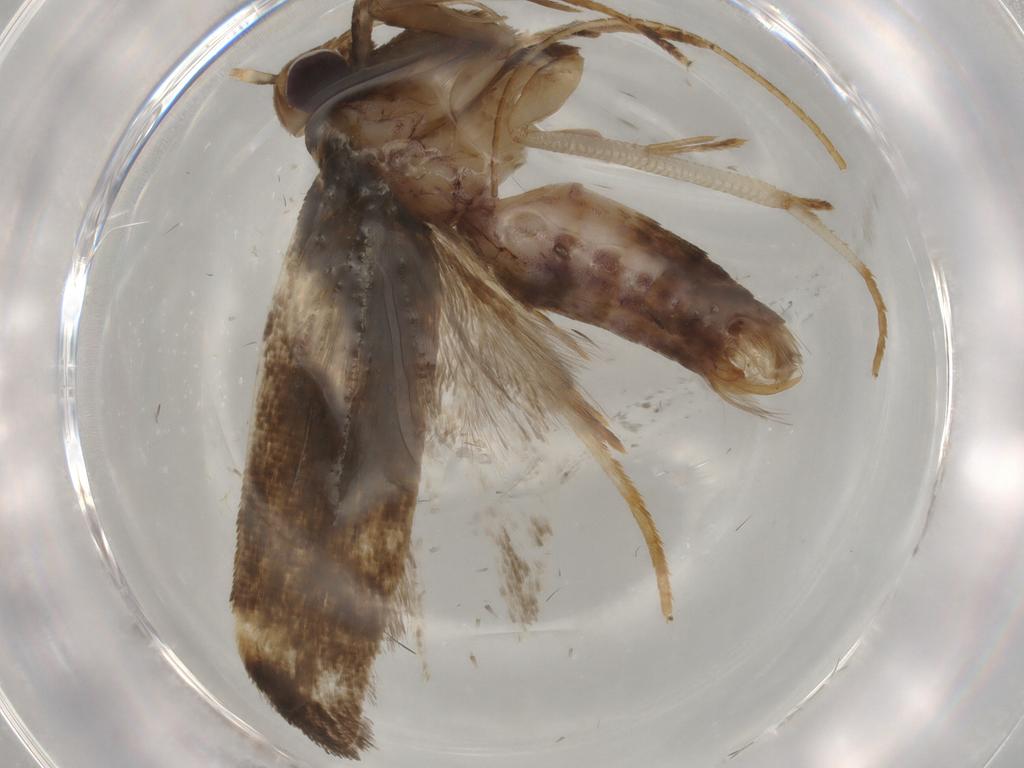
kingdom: Animalia
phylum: Arthropoda
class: Insecta
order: Lepidoptera
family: Gelechiidae
